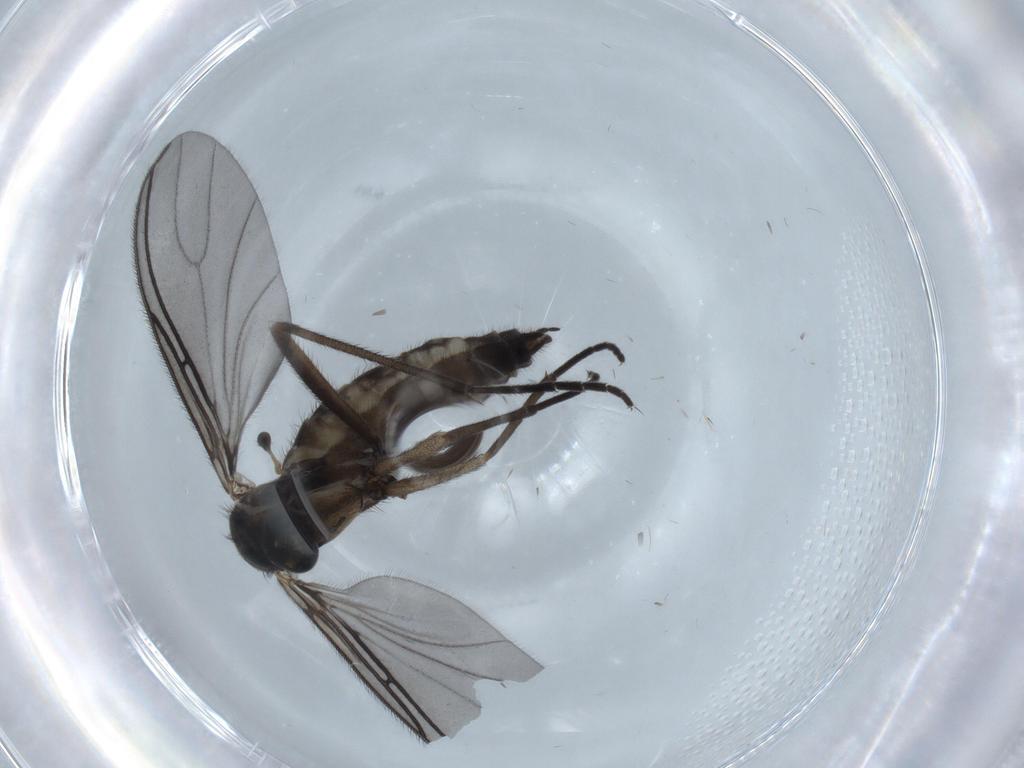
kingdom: Animalia
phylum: Arthropoda
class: Insecta
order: Diptera
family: Sciaridae
